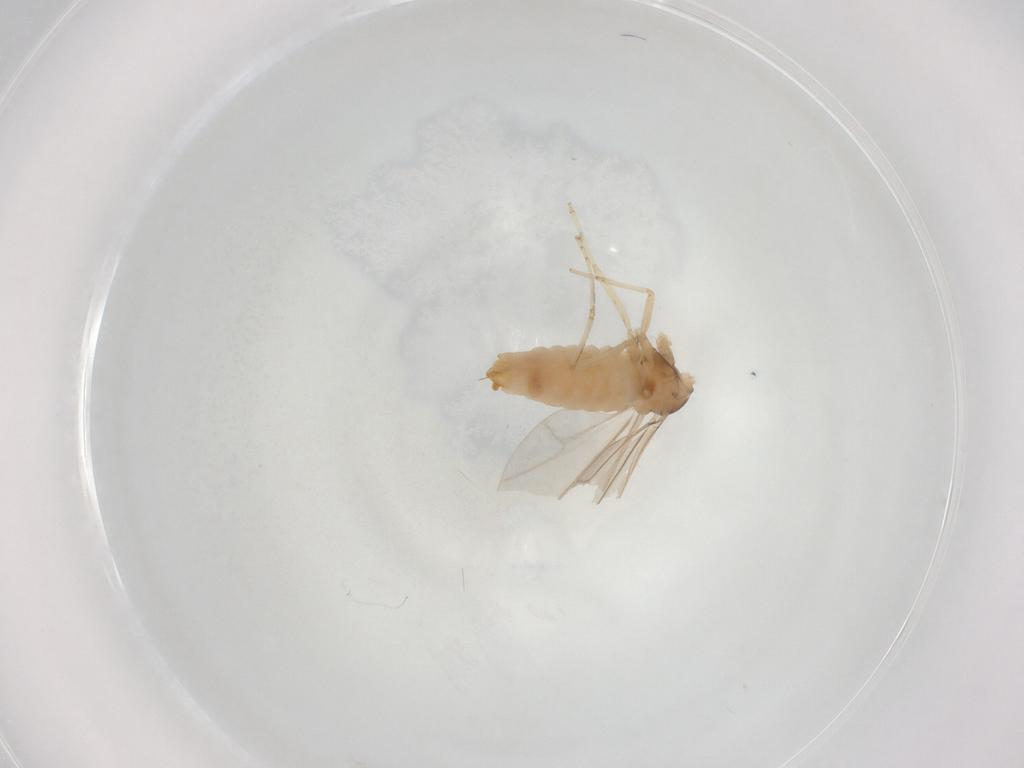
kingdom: Animalia
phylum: Arthropoda
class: Insecta
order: Diptera
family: Cecidomyiidae
